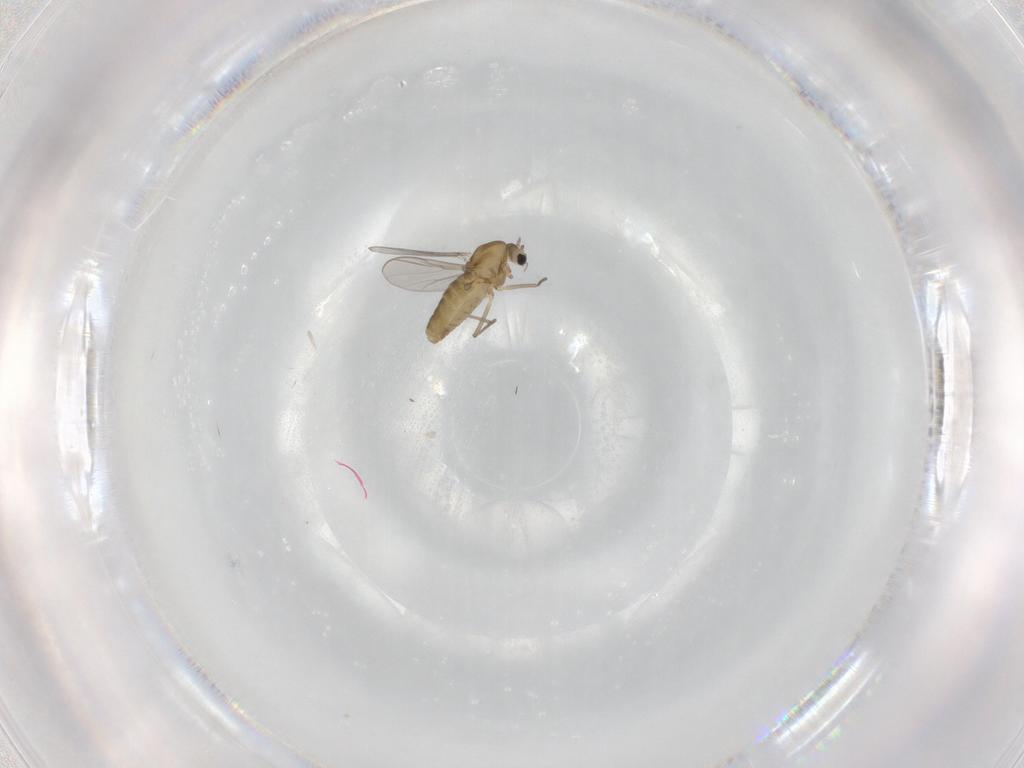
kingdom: Animalia
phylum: Arthropoda
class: Insecta
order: Diptera
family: Chironomidae
